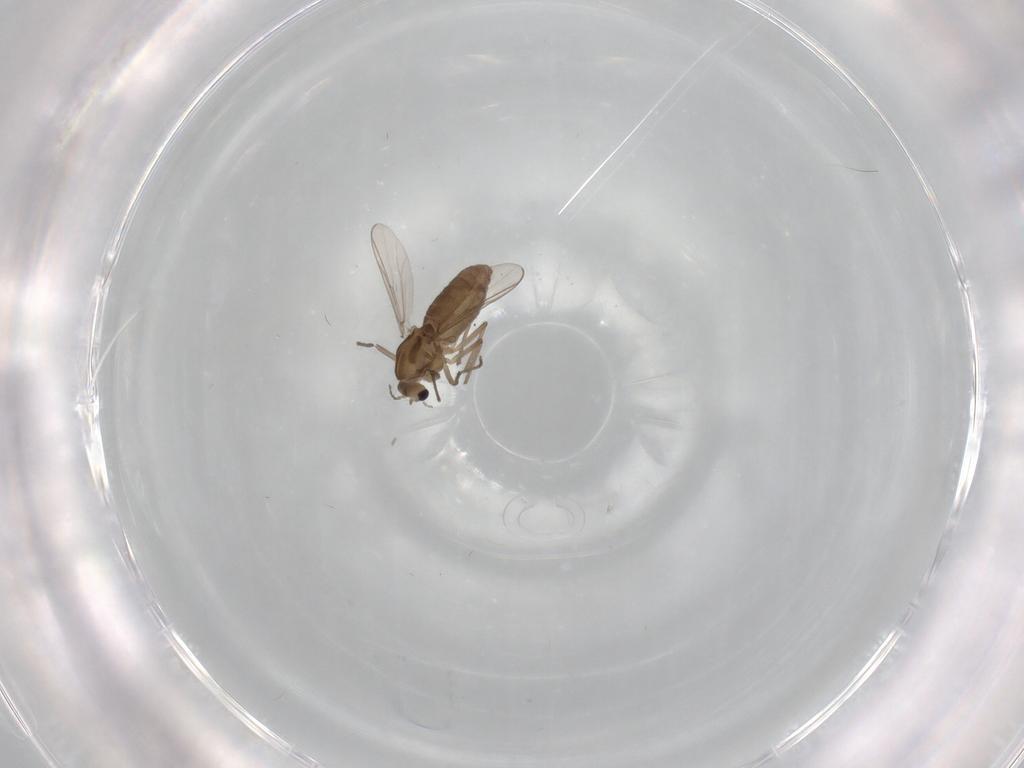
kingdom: Animalia
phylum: Arthropoda
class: Insecta
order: Diptera
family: Chironomidae
